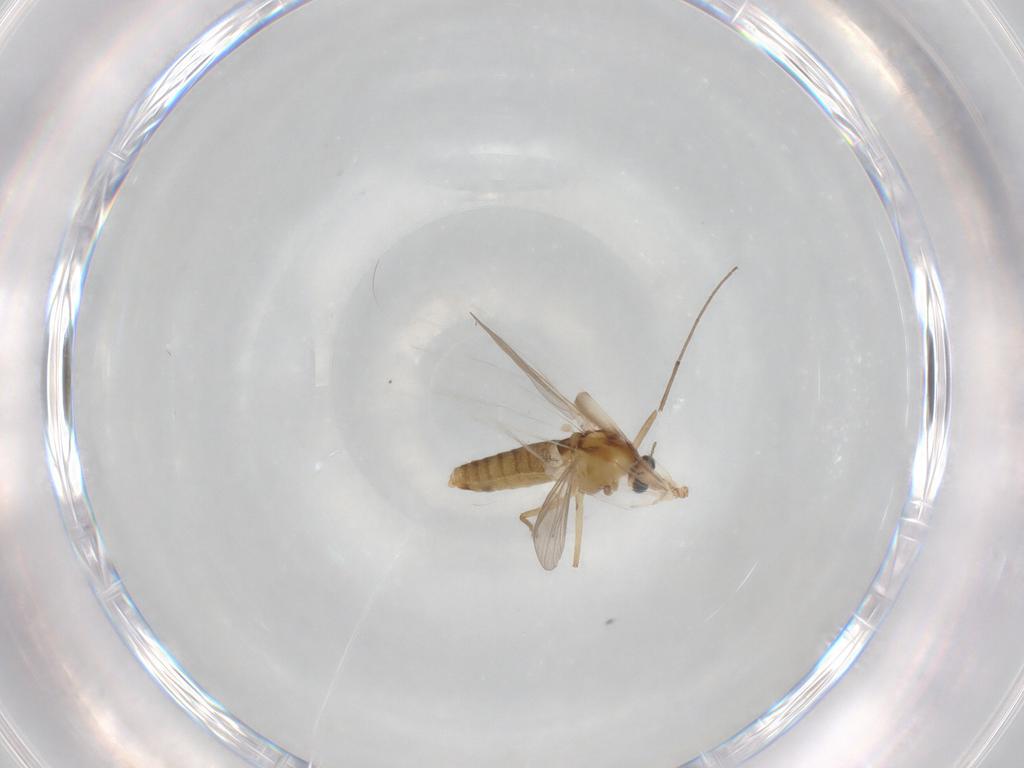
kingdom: Animalia
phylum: Arthropoda
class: Insecta
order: Diptera
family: Chironomidae
